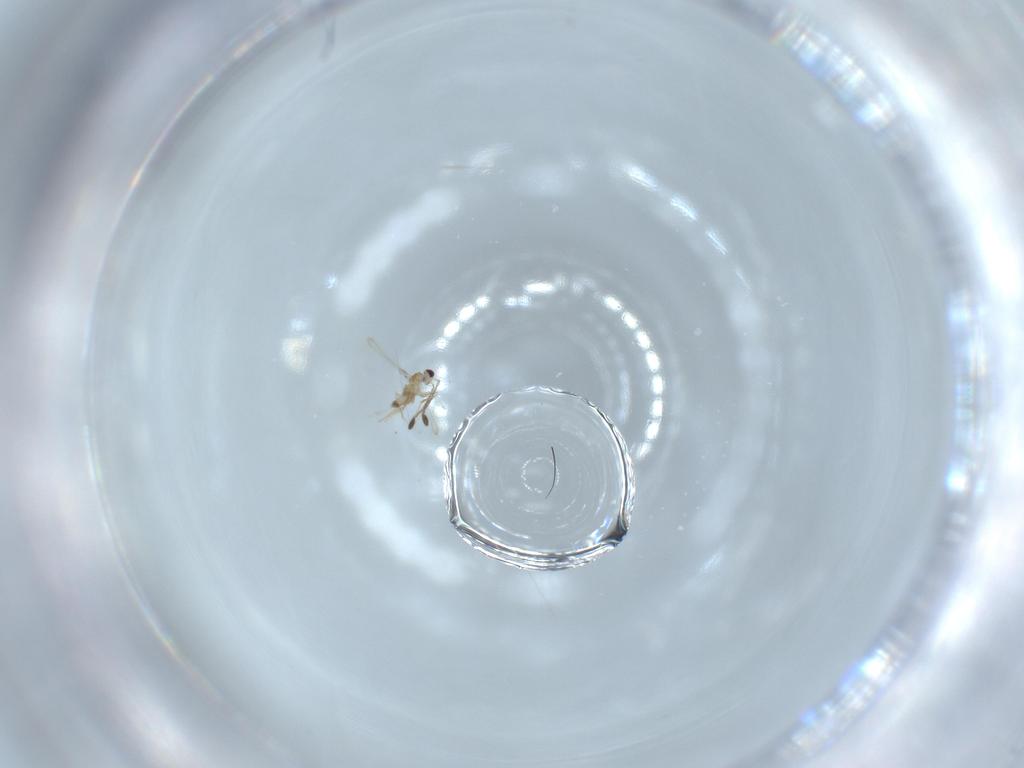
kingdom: Animalia
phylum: Arthropoda
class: Insecta
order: Hymenoptera
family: Mymaridae
